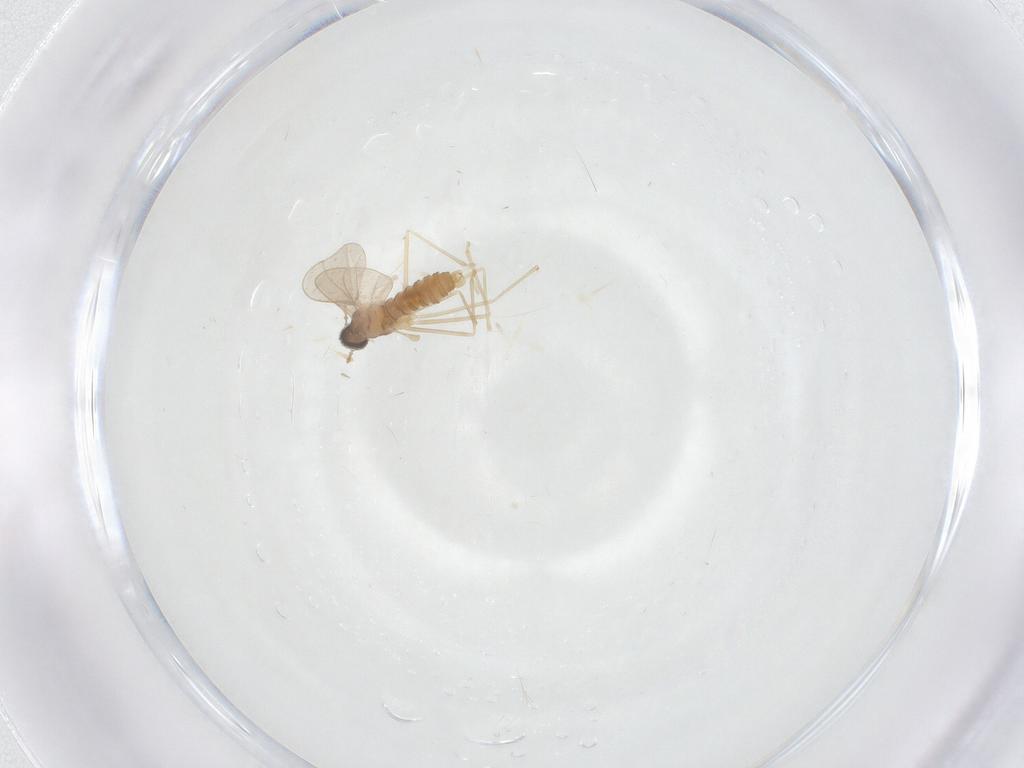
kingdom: Animalia
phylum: Arthropoda
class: Insecta
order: Diptera
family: Cecidomyiidae
